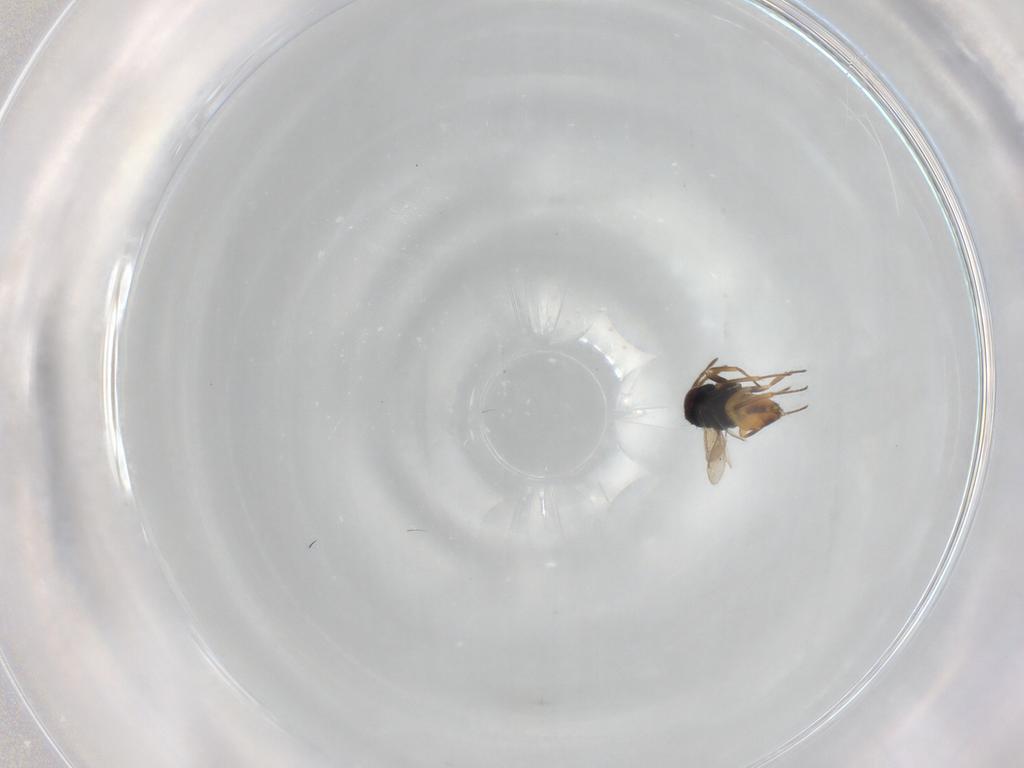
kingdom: Animalia
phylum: Arthropoda
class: Insecta
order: Hymenoptera
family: Aphelinidae
